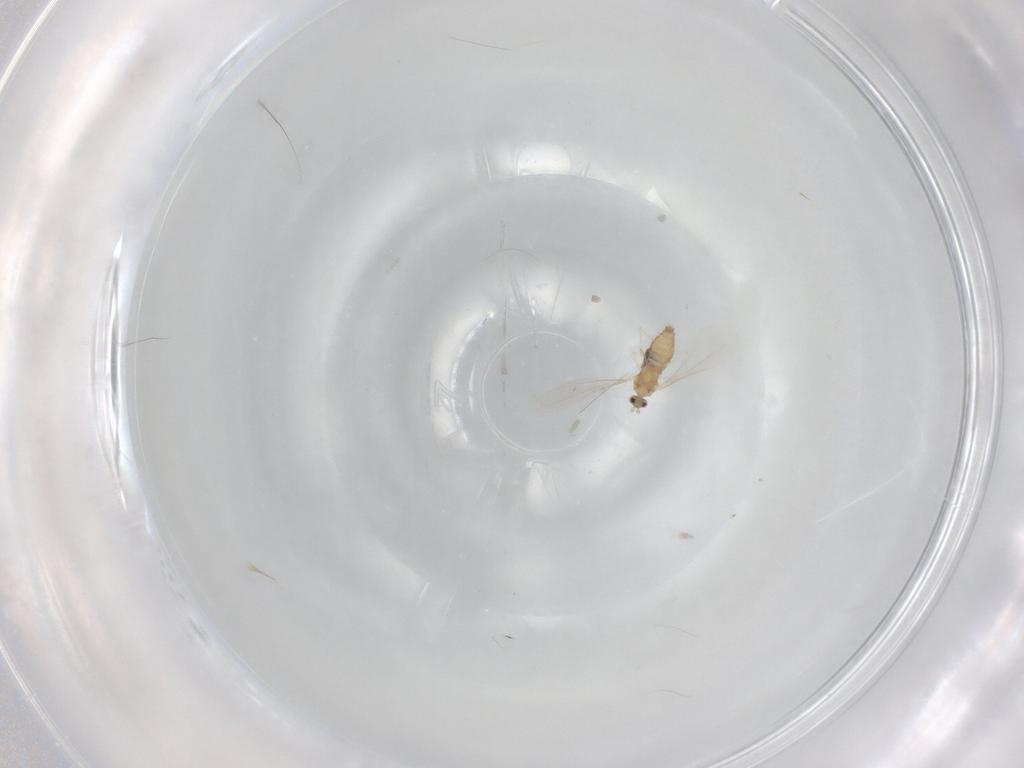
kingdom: Animalia
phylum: Arthropoda
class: Insecta
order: Diptera
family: Cecidomyiidae
